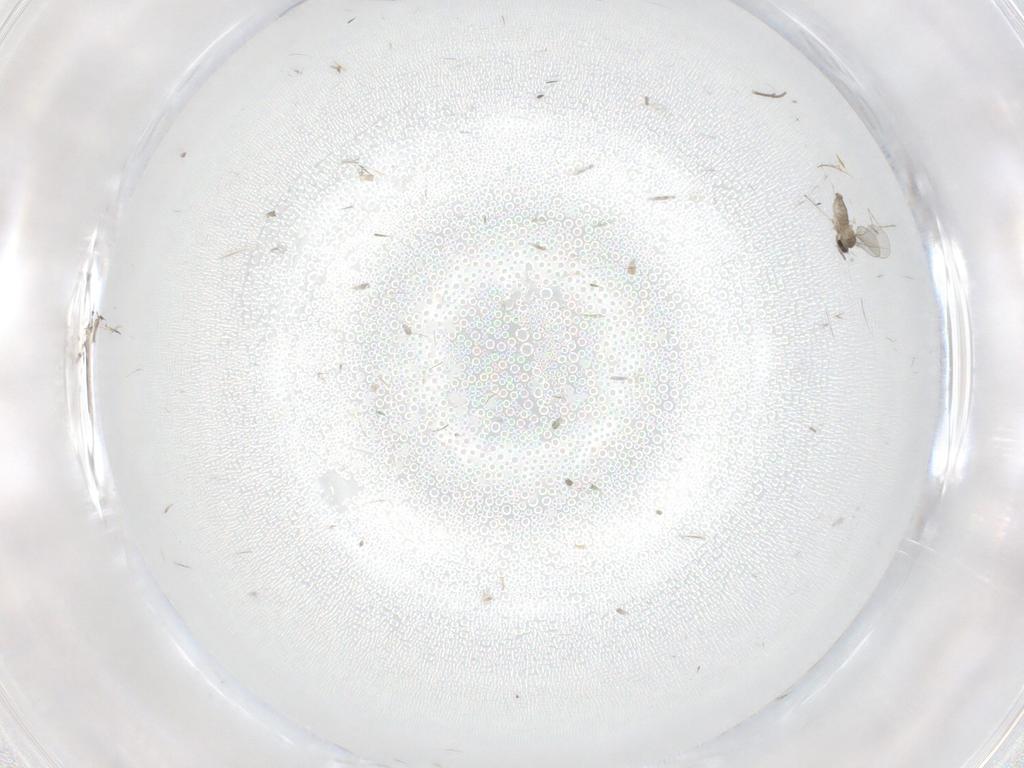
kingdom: Animalia
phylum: Arthropoda
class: Insecta
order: Diptera
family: Cecidomyiidae
